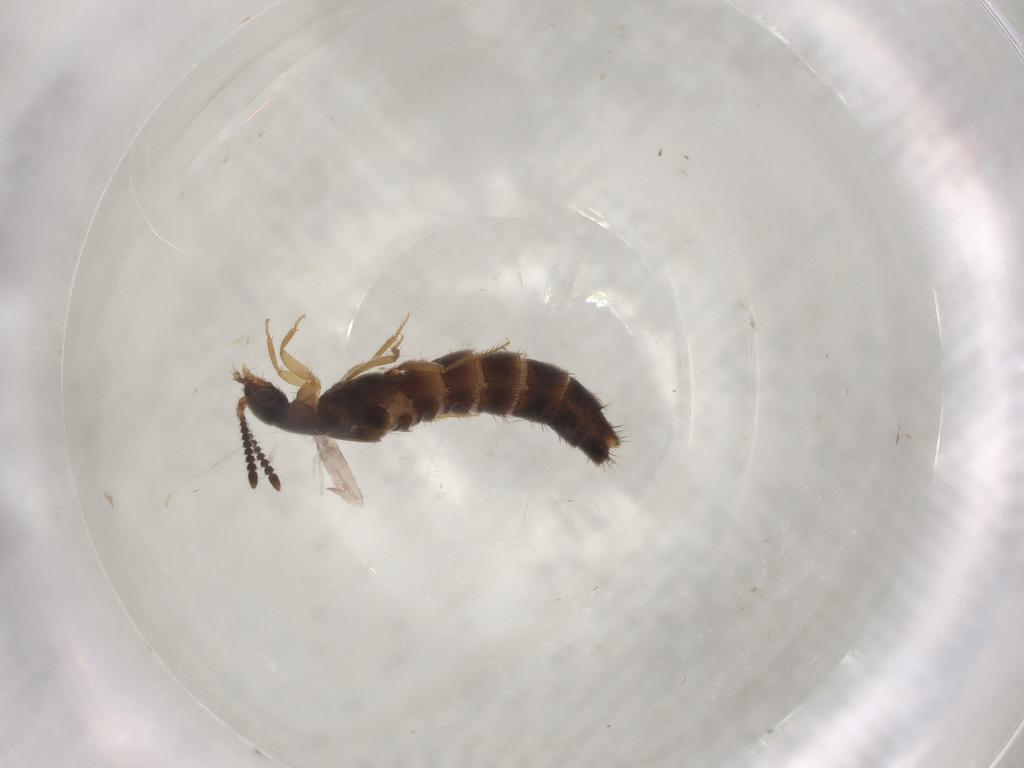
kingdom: Animalia
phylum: Arthropoda
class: Insecta
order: Coleoptera
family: Staphylinidae
